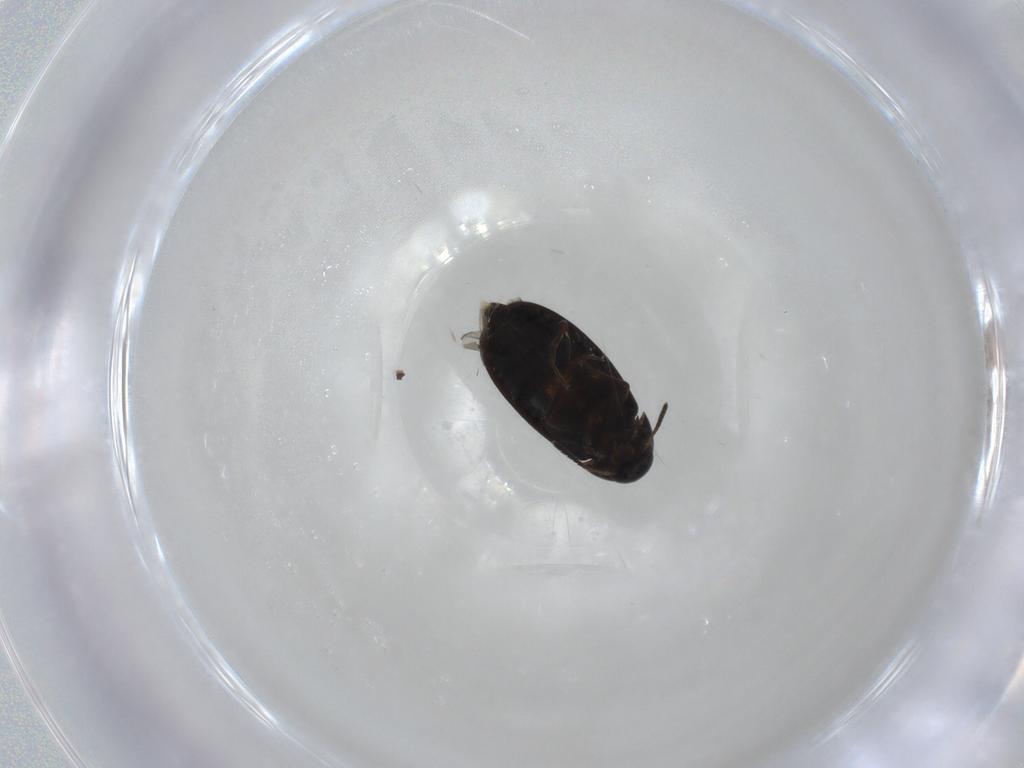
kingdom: Animalia
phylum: Arthropoda
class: Insecta
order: Coleoptera
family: Scraptiidae
